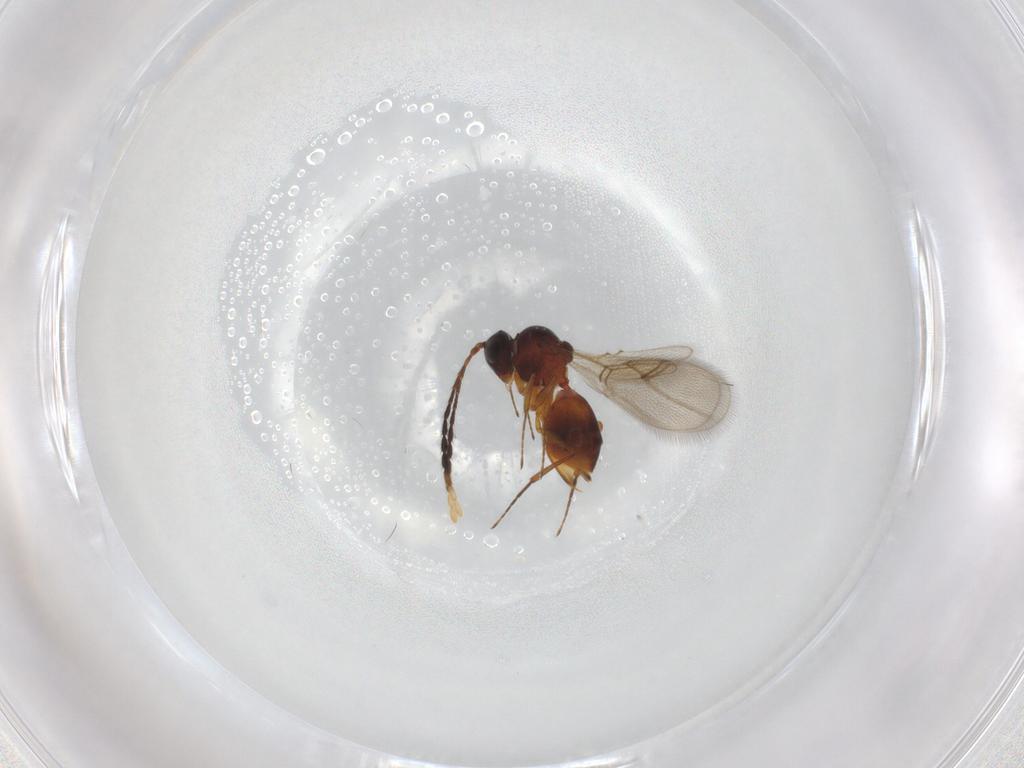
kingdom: Animalia
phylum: Arthropoda
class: Insecta
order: Hymenoptera
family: Figitidae
